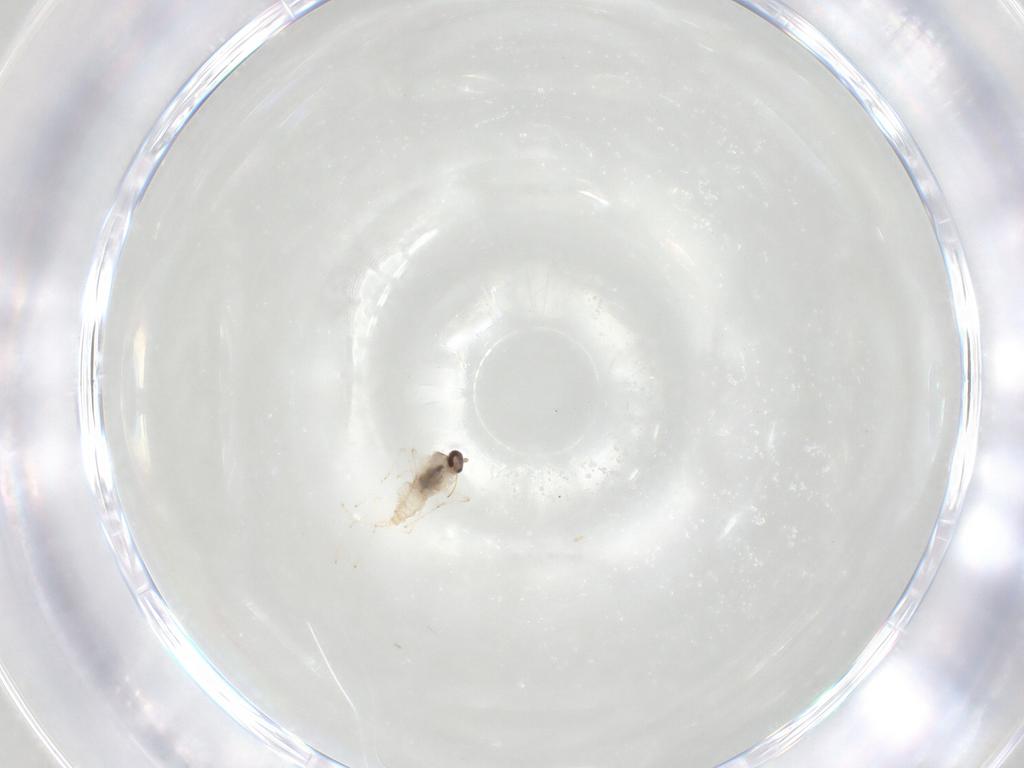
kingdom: Animalia
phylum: Arthropoda
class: Insecta
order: Diptera
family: Cecidomyiidae
